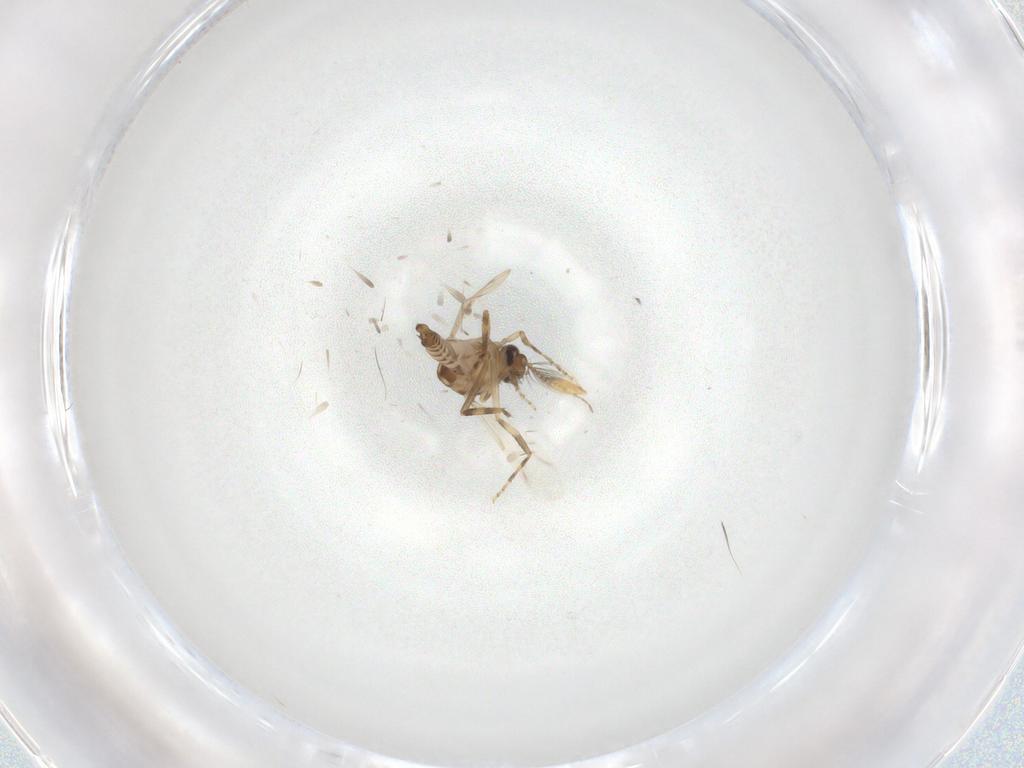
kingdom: Animalia
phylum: Arthropoda
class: Insecta
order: Diptera
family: Ceratopogonidae
